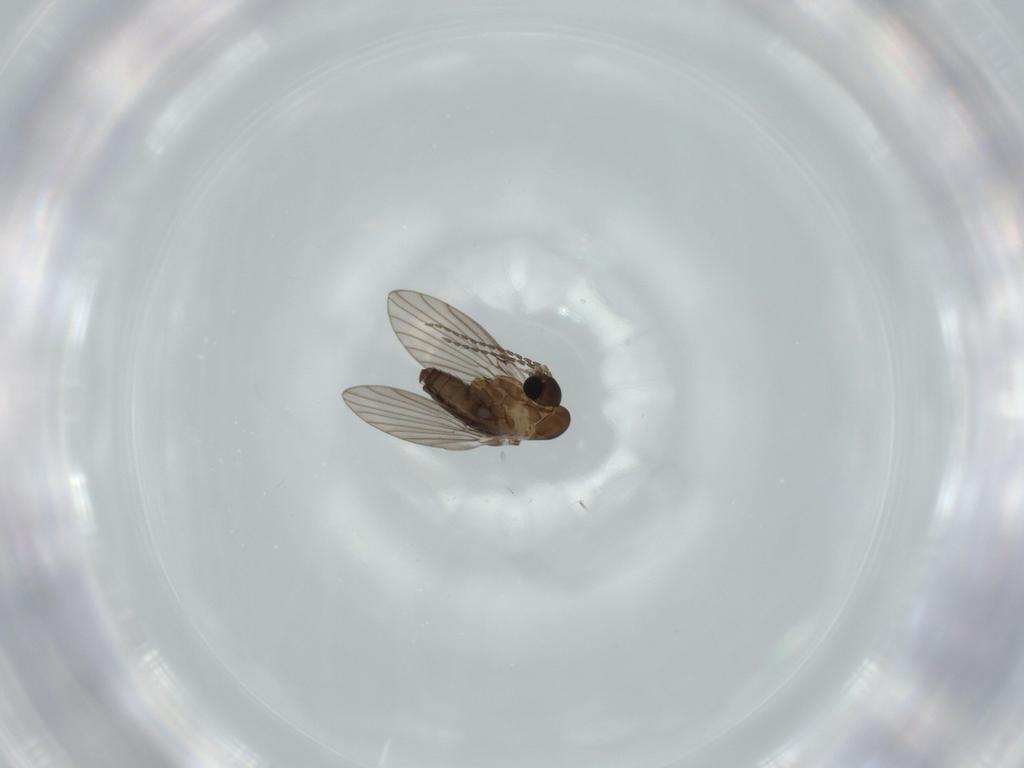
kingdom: Animalia
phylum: Arthropoda
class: Insecta
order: Diptera
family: Psychodidae
